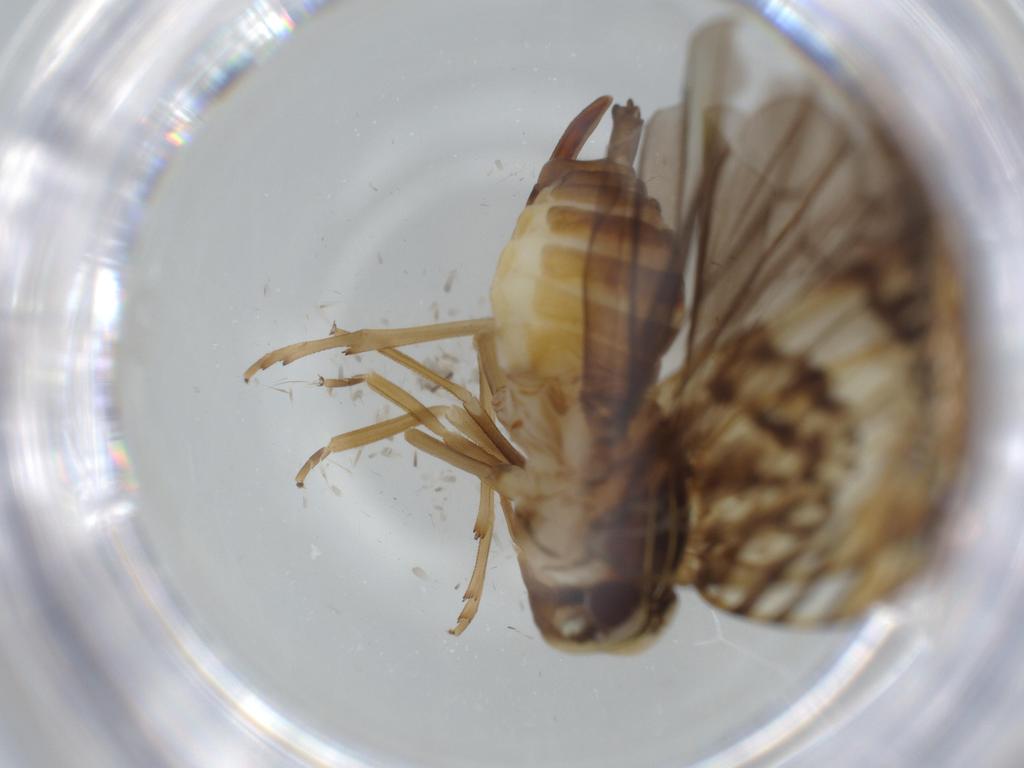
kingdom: Animalia
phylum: Arthropoda
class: Insecta
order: Hemiptera
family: Cixiidae
